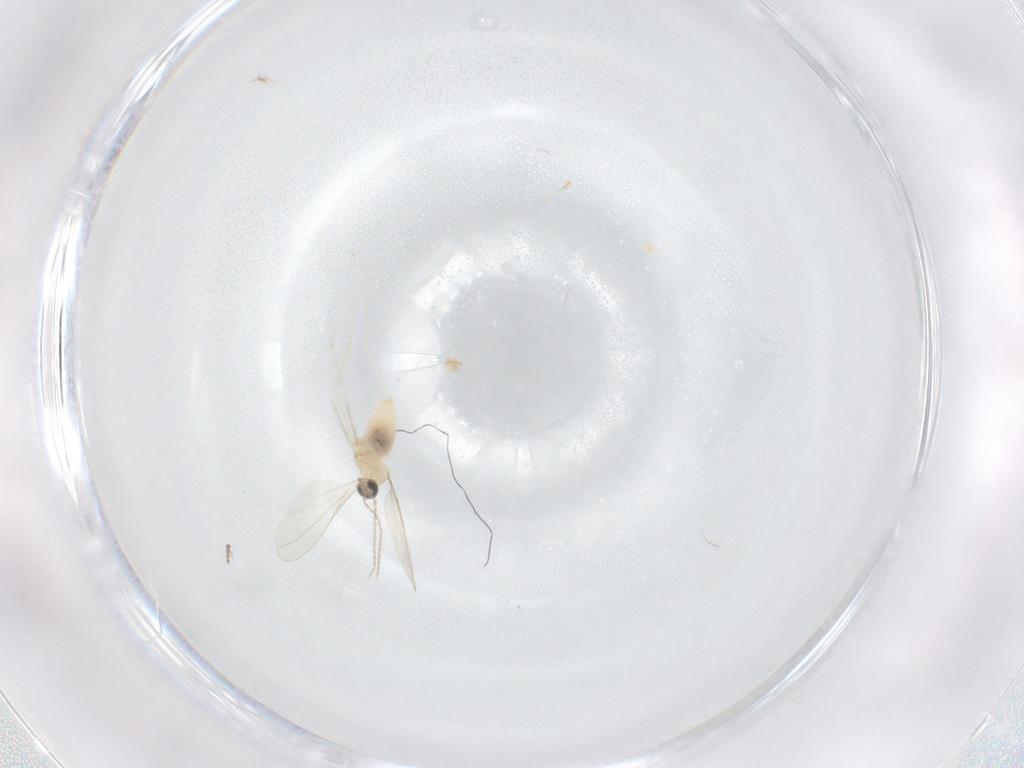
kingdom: Animalia
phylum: Arthropoda
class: Insecta
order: Diptera
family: Cecidomyiidae
